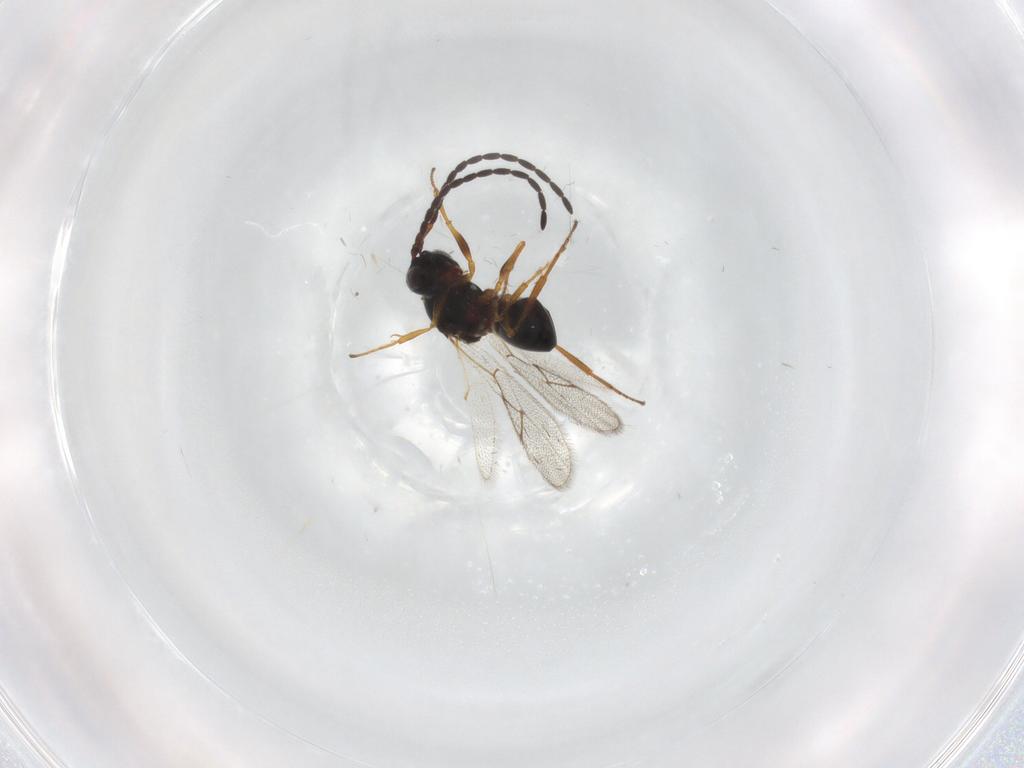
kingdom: Animalia
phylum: Arthropoda
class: Insecta
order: Hymenoptera
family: Figitidae
